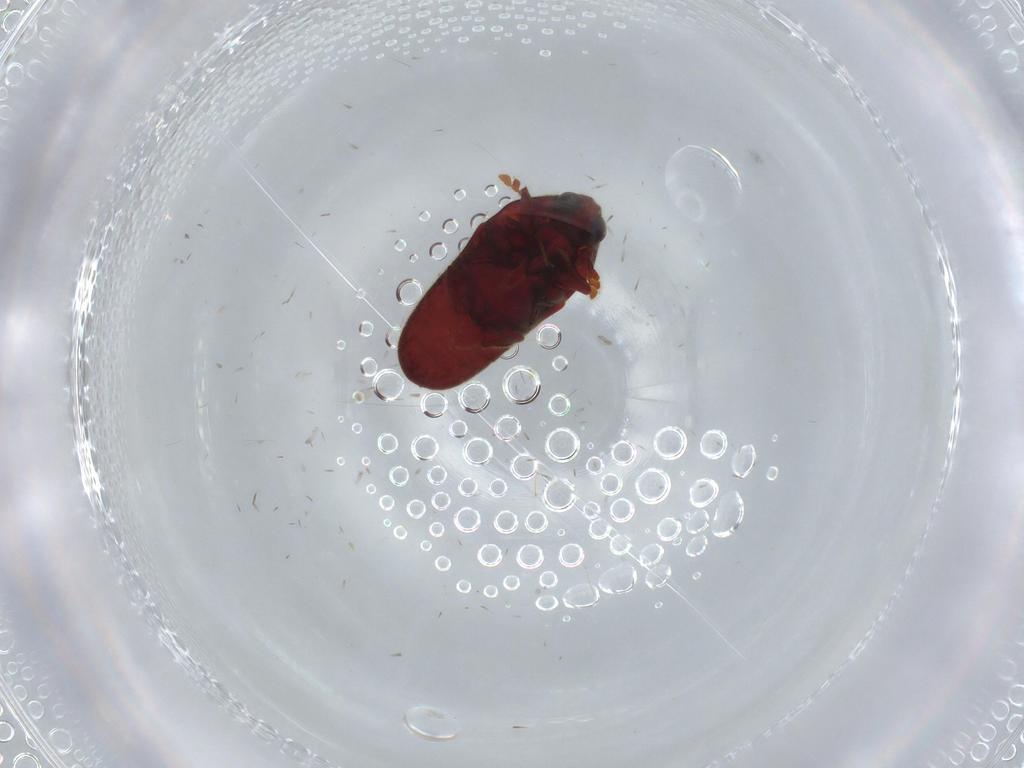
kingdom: Animalia
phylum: Arthropoda
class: Insecta
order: Coleoptera
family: Throscidae
